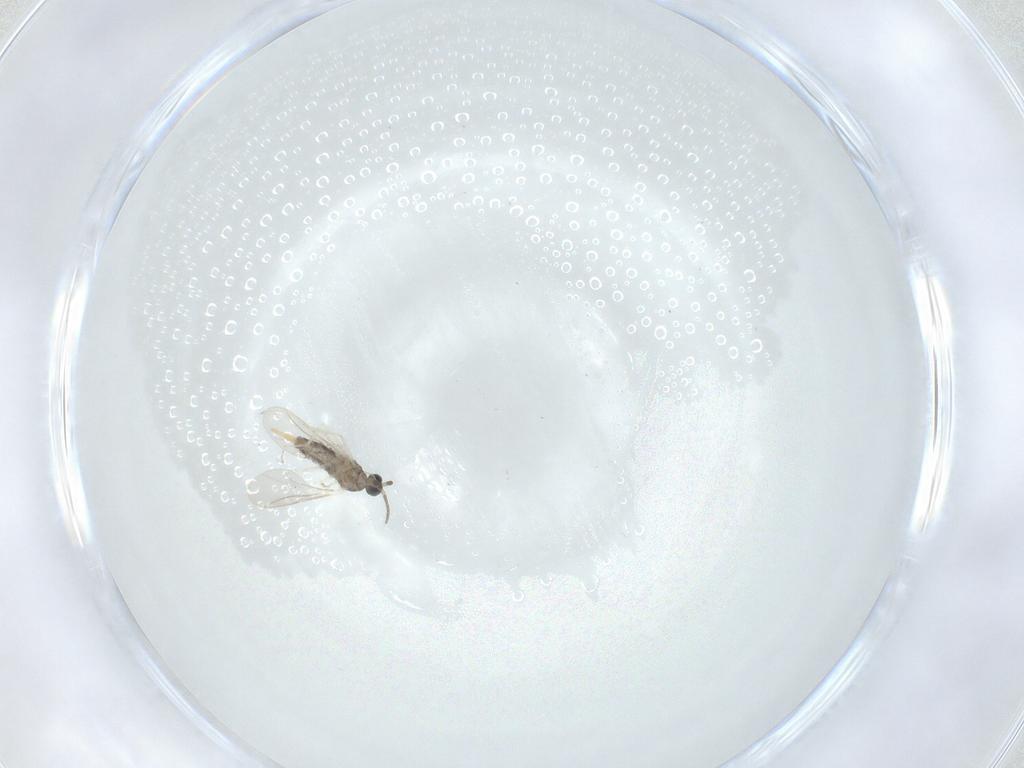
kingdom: Animalia
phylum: Arthropoda
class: Insecta
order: Diptera
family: Cecidomyiidae
